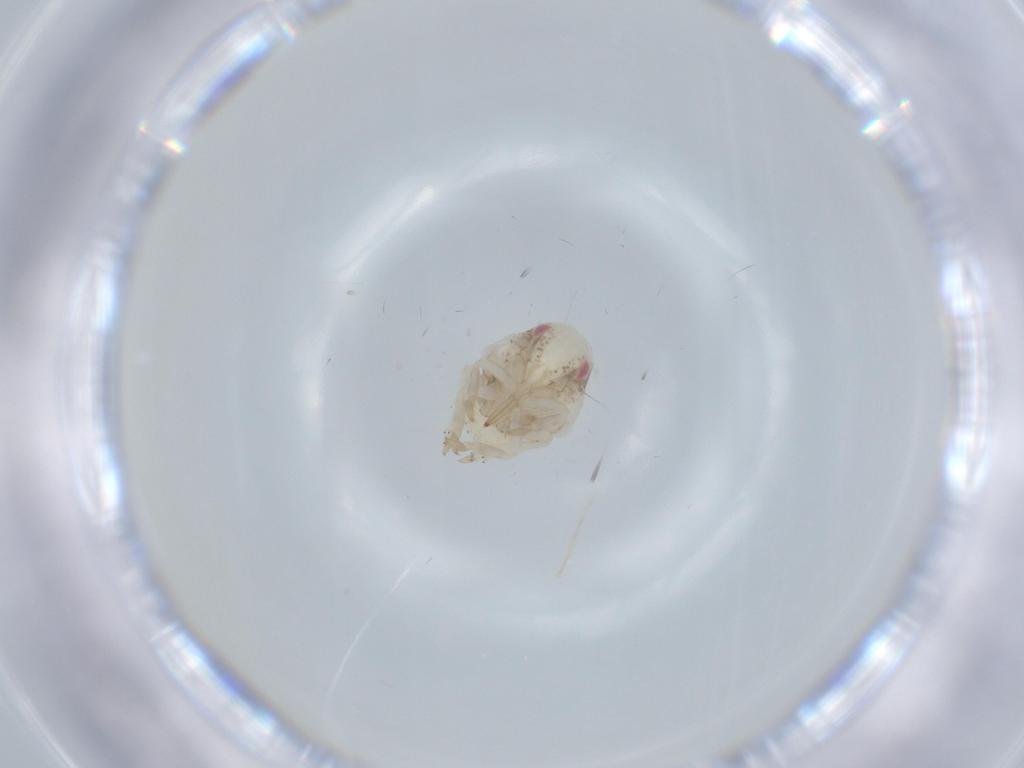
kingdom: Animalia
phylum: Arthropoda
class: Insecta
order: Hemiptera
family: Acanaloniidae
